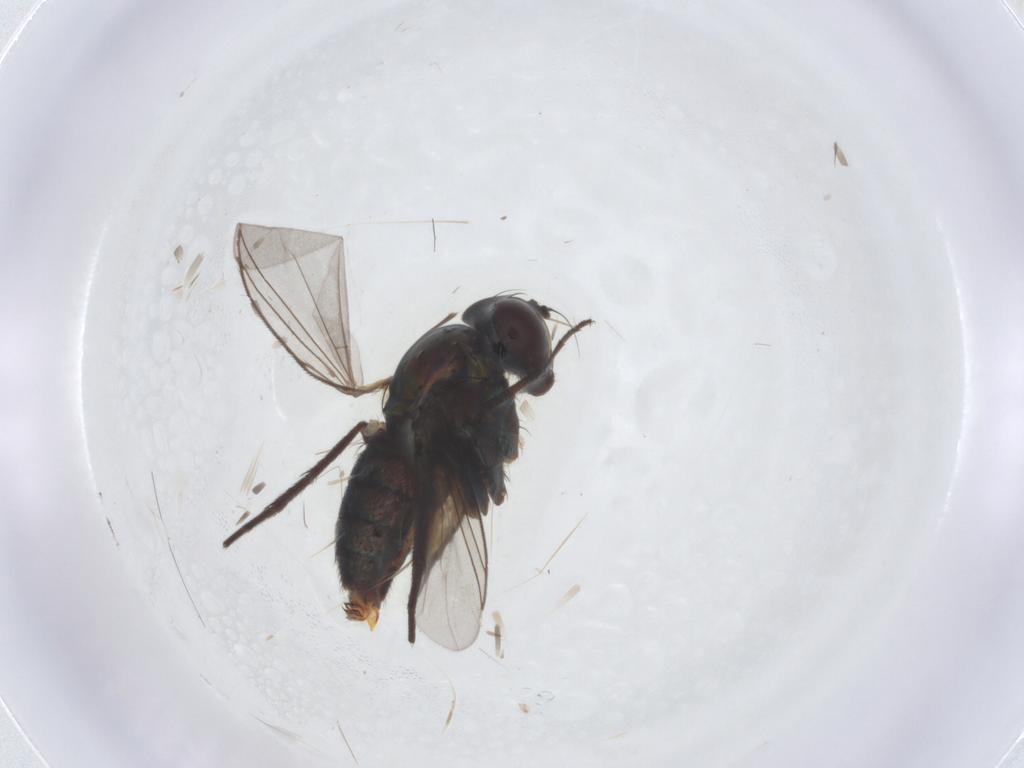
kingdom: Animalia
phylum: Arthropoda
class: Insecta
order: Diptera
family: Dolichopodidae
